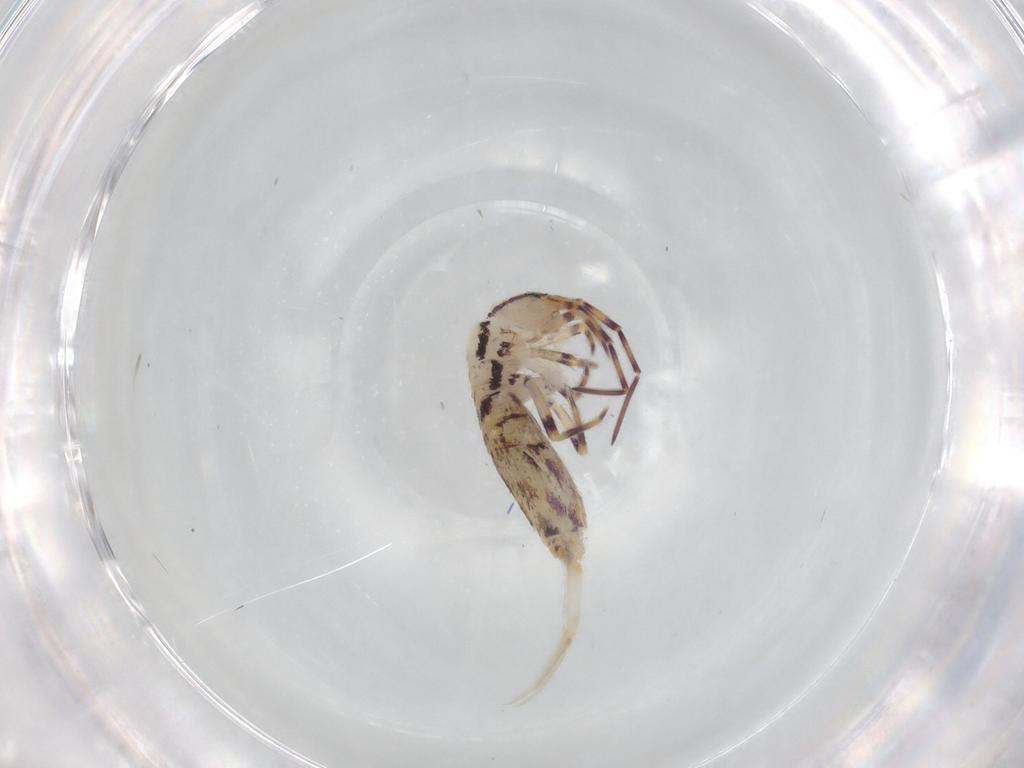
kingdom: Animalia
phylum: Arthropoda
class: Collembola
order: Entomobryomorpha
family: Entomobryidae
